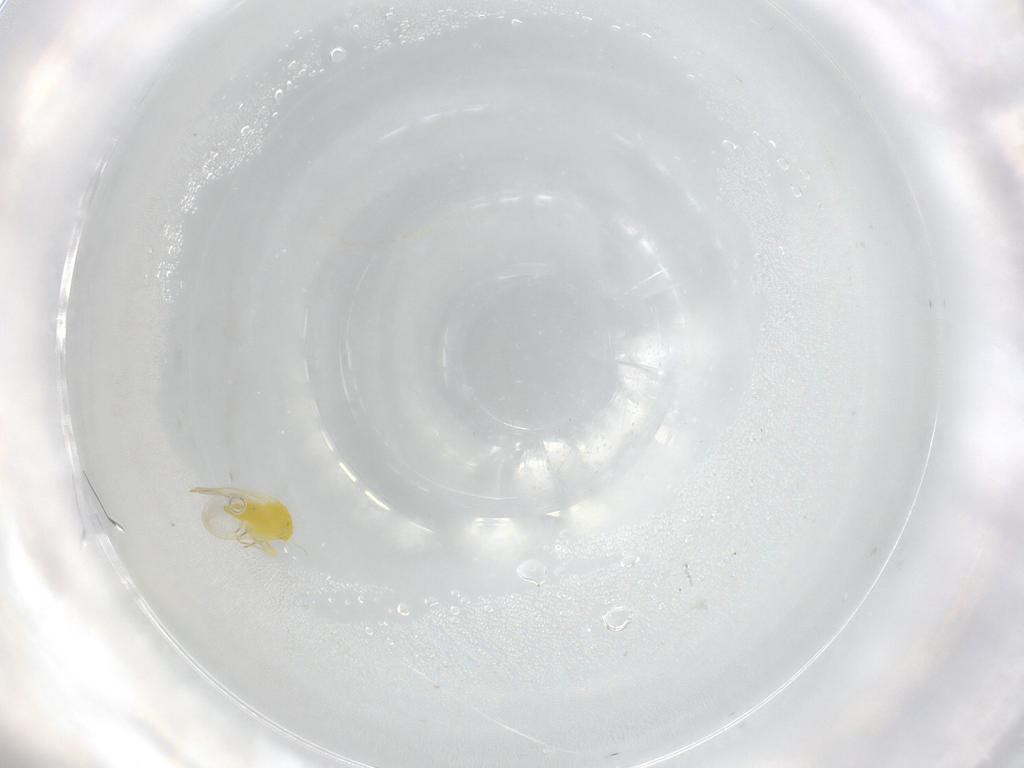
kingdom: Animalia
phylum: Arthropoda
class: Insecta
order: Hemiptera
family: Aleyrodidae
